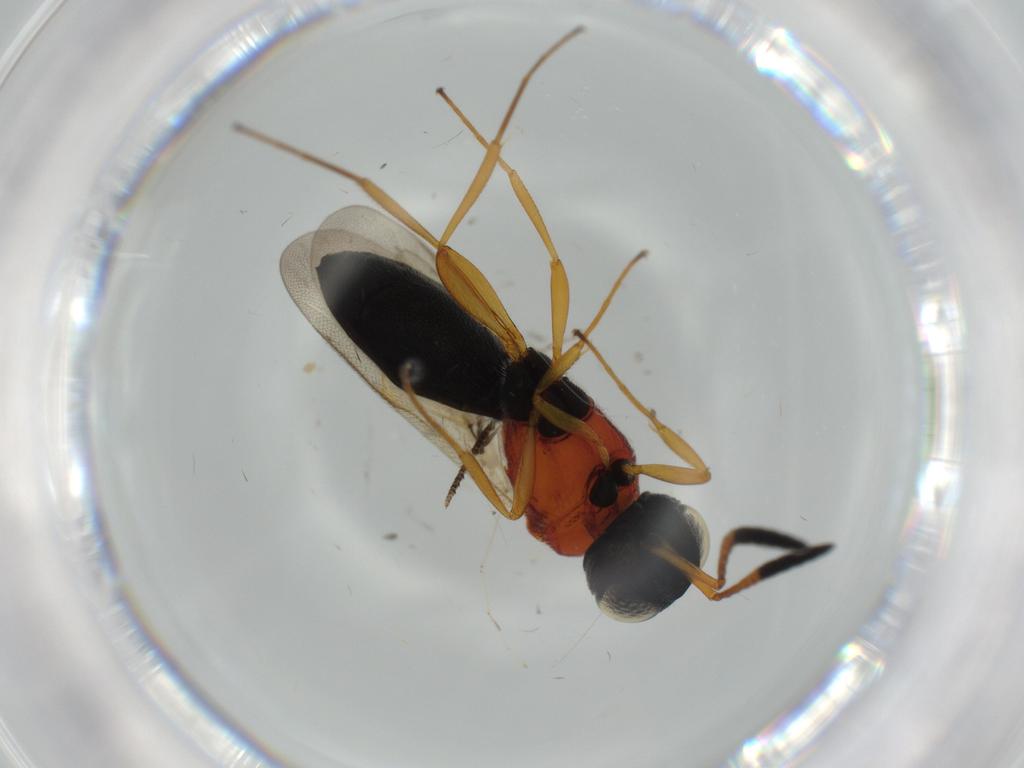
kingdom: Animalia
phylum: Arthropoda
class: Insecta
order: Hymenoptera
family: Scelionidae
